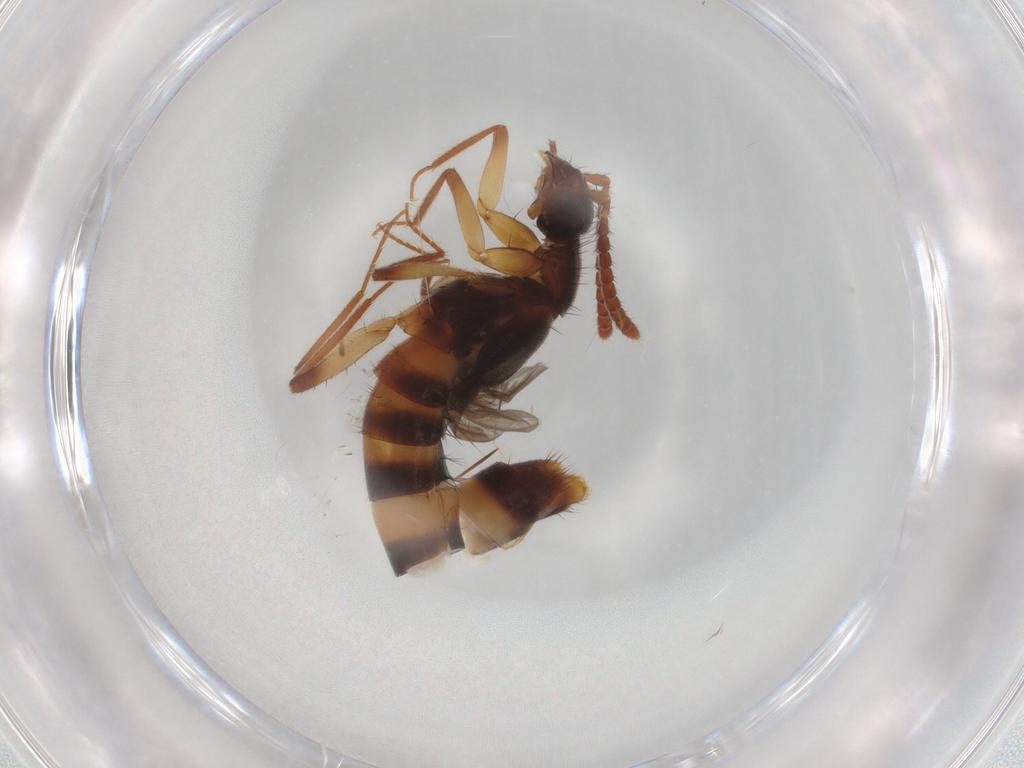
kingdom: Animalia
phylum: Arthropoda
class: Insecta
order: Coleoptera
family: Staphylinidae
